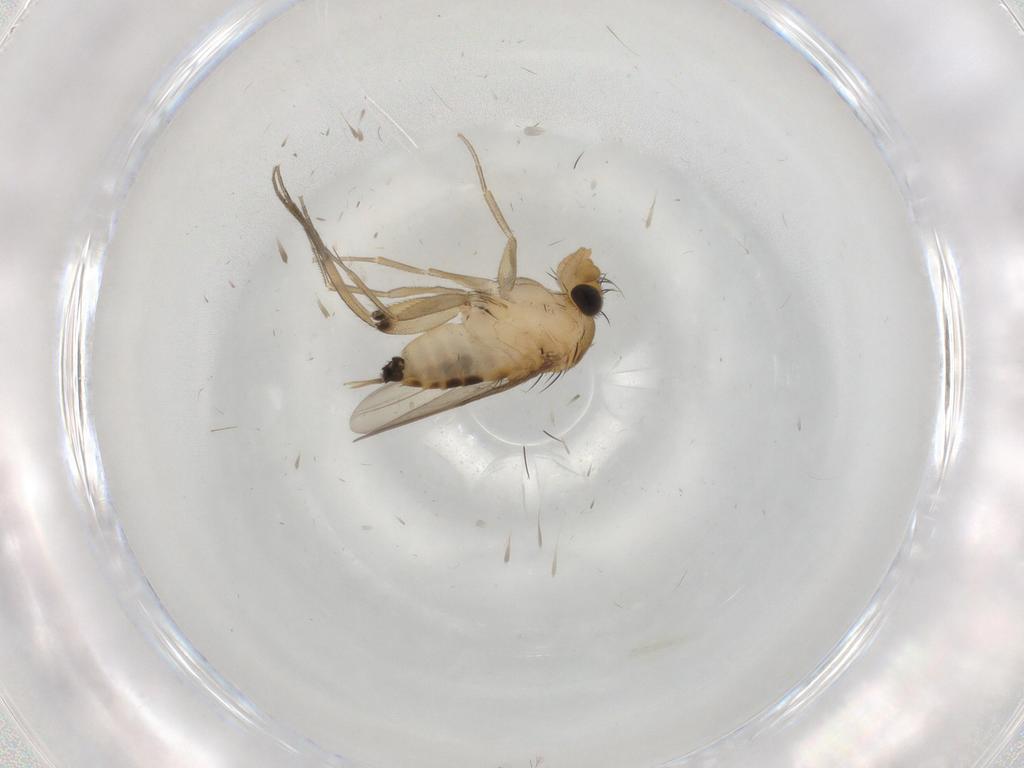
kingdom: Animalia
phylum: Arthropoda
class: Insecta
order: Diptera
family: Phoridae
